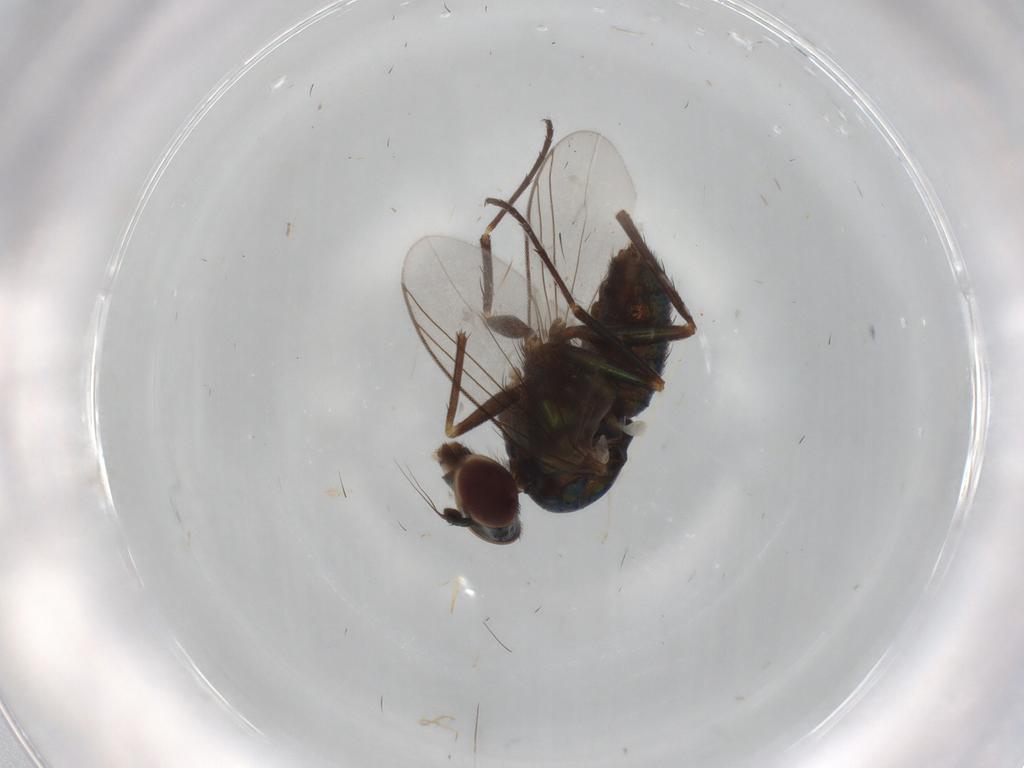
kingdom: Animalia
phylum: Arthropoda
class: Insecta
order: Diptera
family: Dolichopodidae
